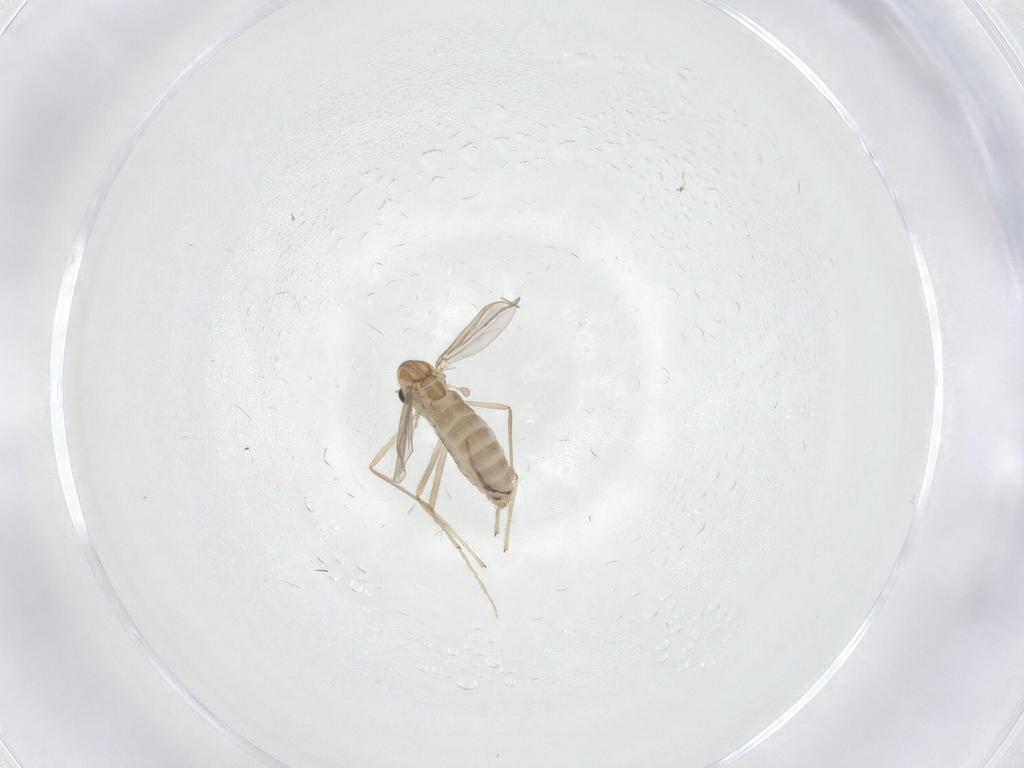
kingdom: Animalia
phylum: Arthropoda
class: Insecta
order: Diptera
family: Chironomidae
